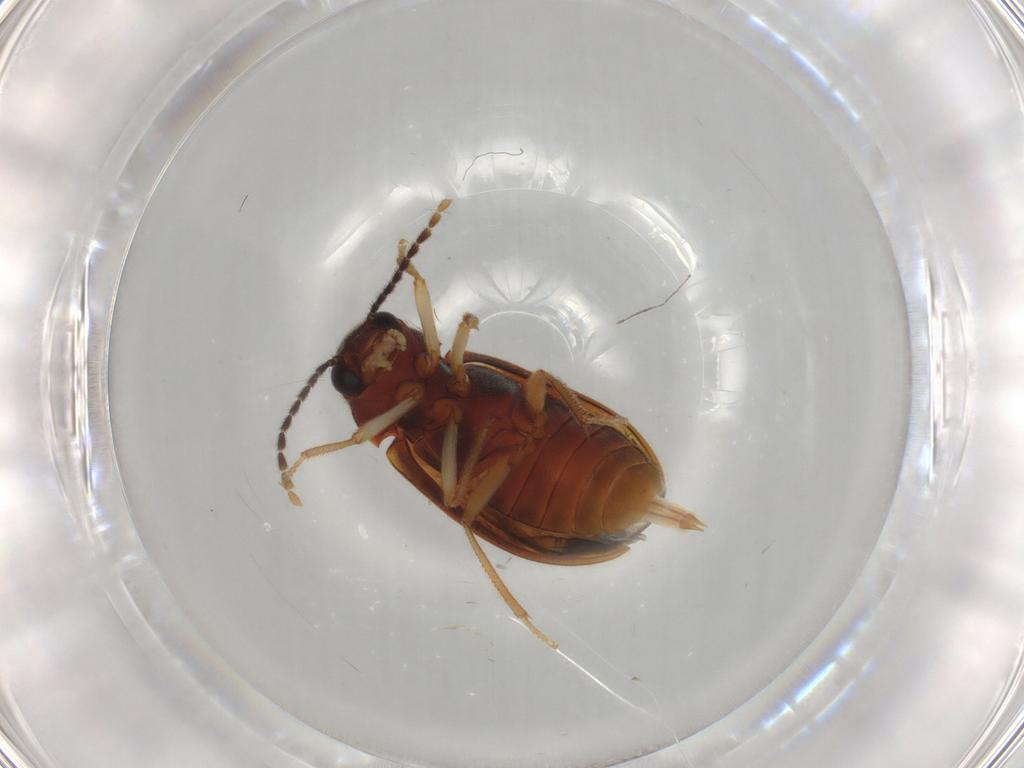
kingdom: Animalia
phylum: Arthropoda
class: Insecta
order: Coleoptera
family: Ptilodactylidae
